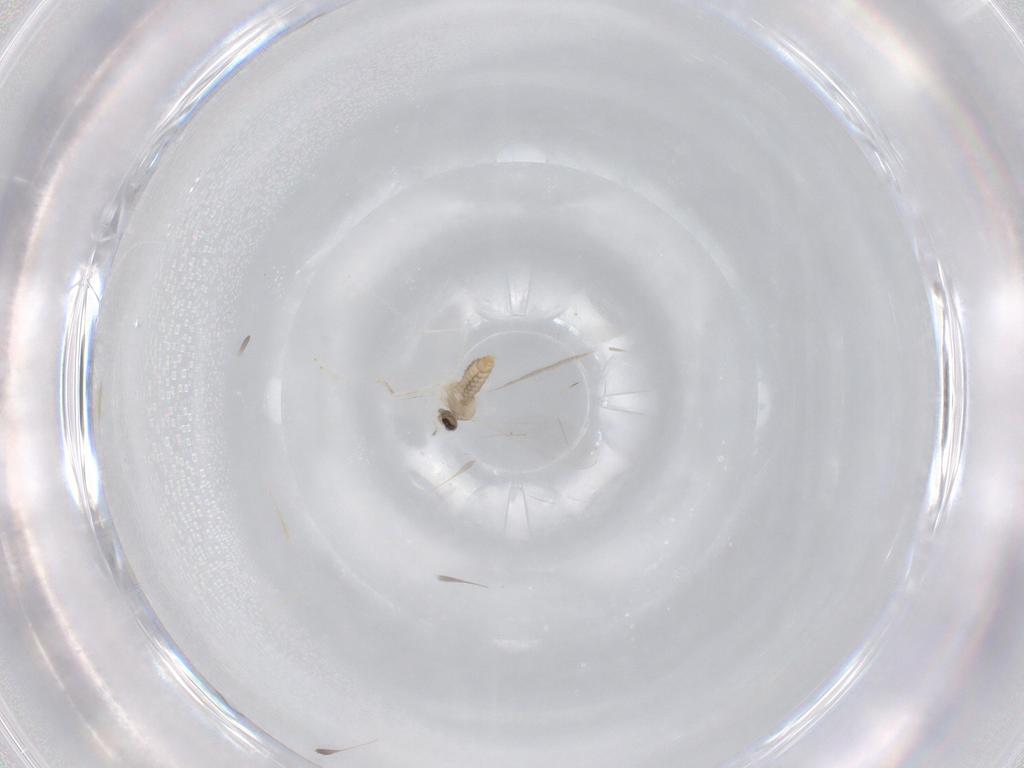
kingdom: Animalia
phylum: Arthropoda
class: Insecta
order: Diptera
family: Cecidomyiidae
